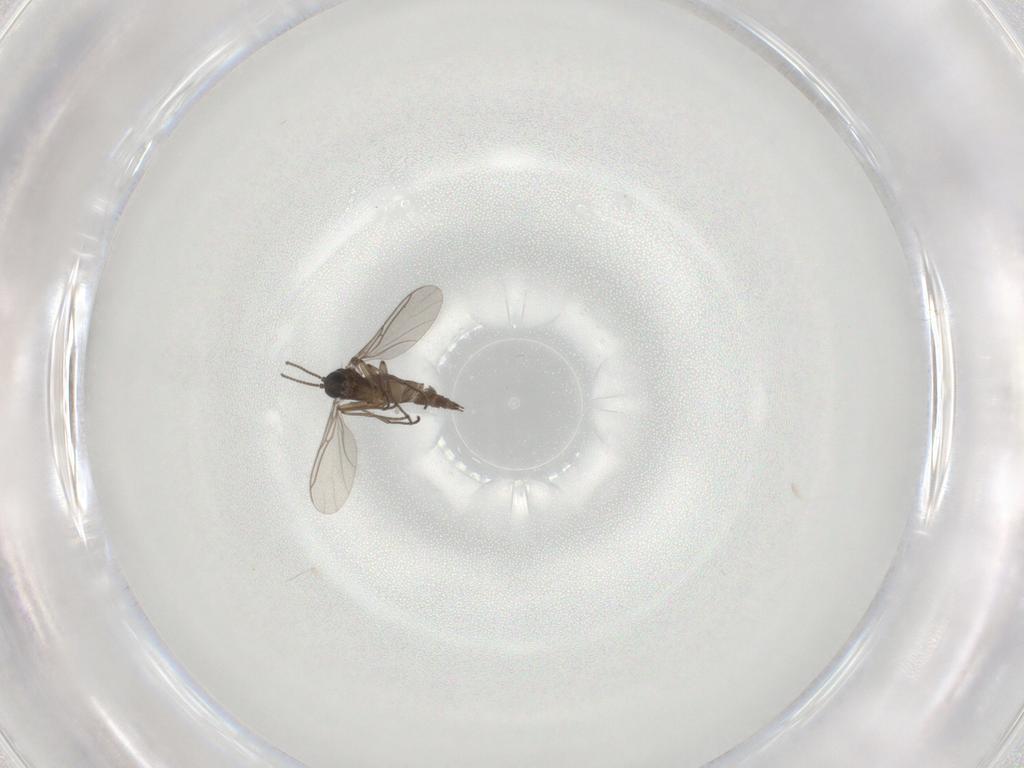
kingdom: Animalia
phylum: Arthropoda
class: Insecta
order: Diptera
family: Sciaridae
